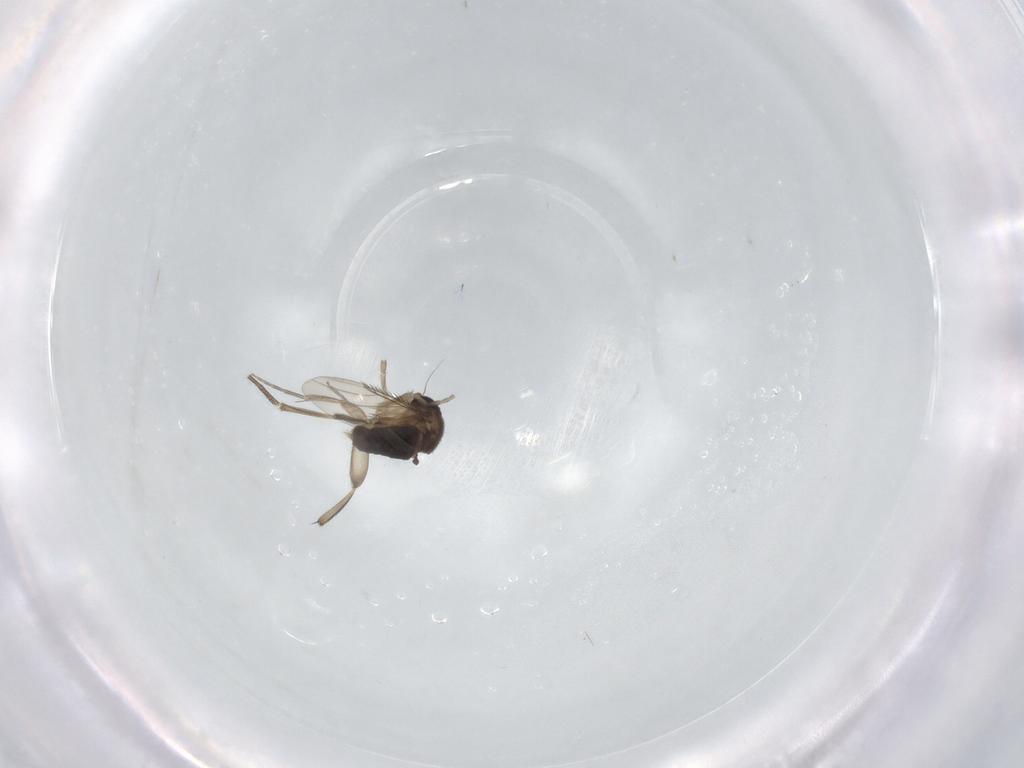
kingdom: Animalia
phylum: Arthropoda
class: Insecta
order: Diptera
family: Phoridae
